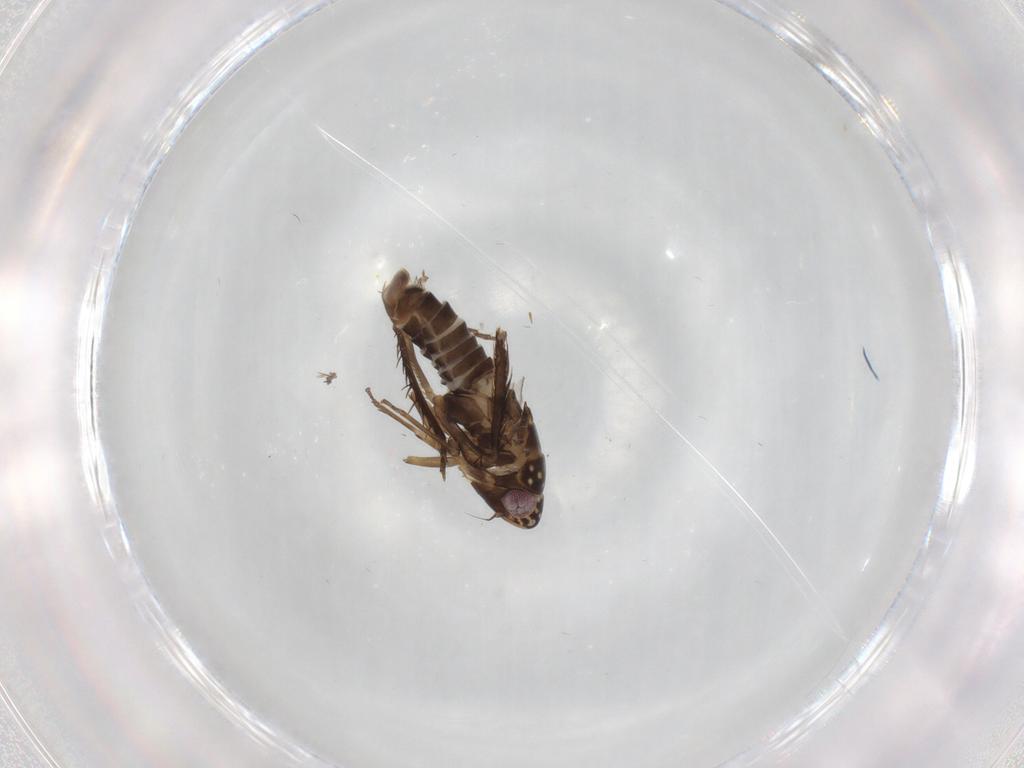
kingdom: Animalia
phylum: Arthropoda
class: Insecta
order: Hemiptera
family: Cicadellidae
